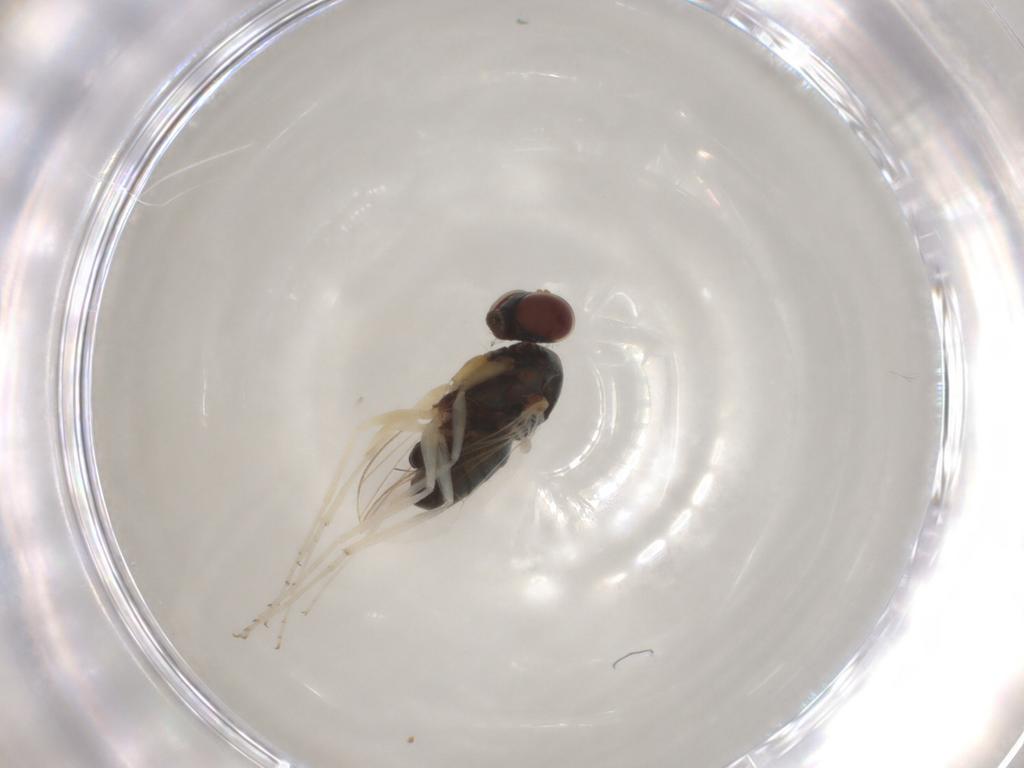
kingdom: Animalia
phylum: Arthropoda
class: Insecta
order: Diptera
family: Dolichopodidae
